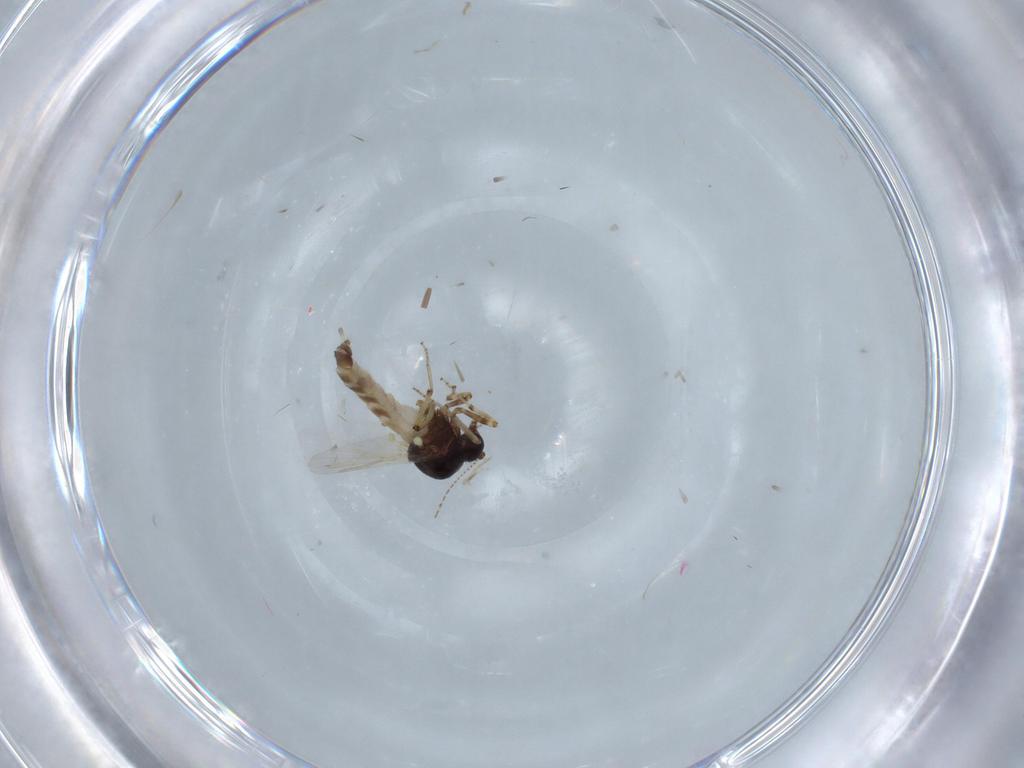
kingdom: Animalia
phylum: Arthropoda
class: Insecta
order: Diptera
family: Ceratopogonidae
